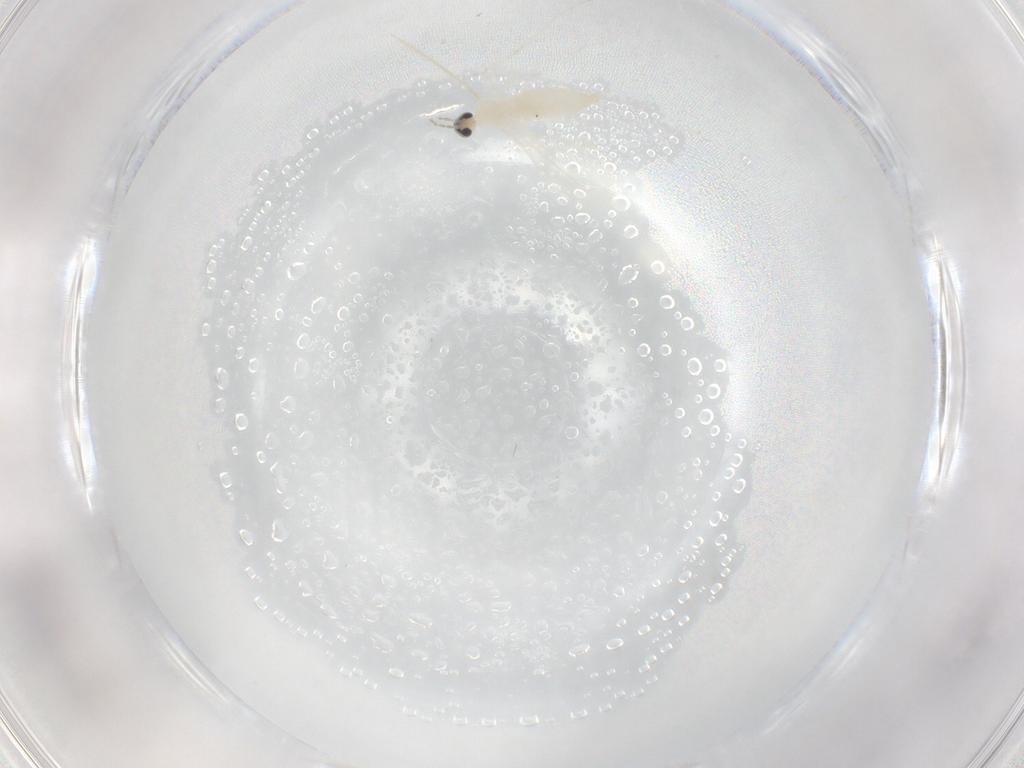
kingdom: Animalia
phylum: Arthropoda
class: Insecta
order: Diptera
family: Cecidomyiidae
